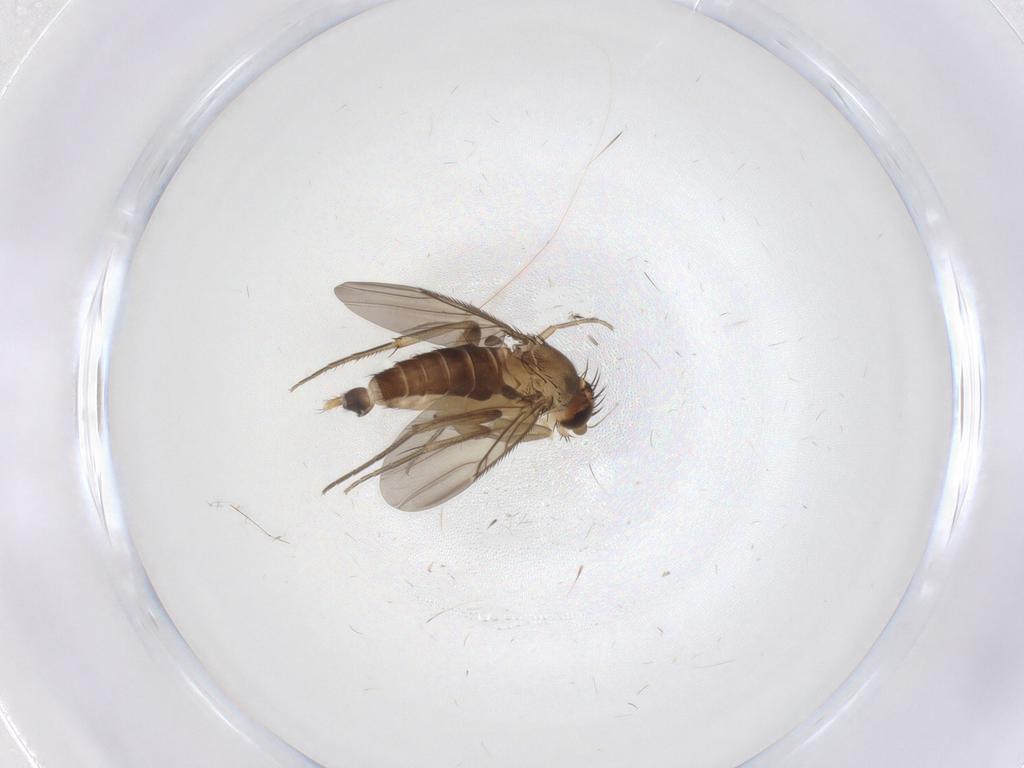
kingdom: Animalia
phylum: Arthropoda
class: Insecta
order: Diptera
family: Phoridae
